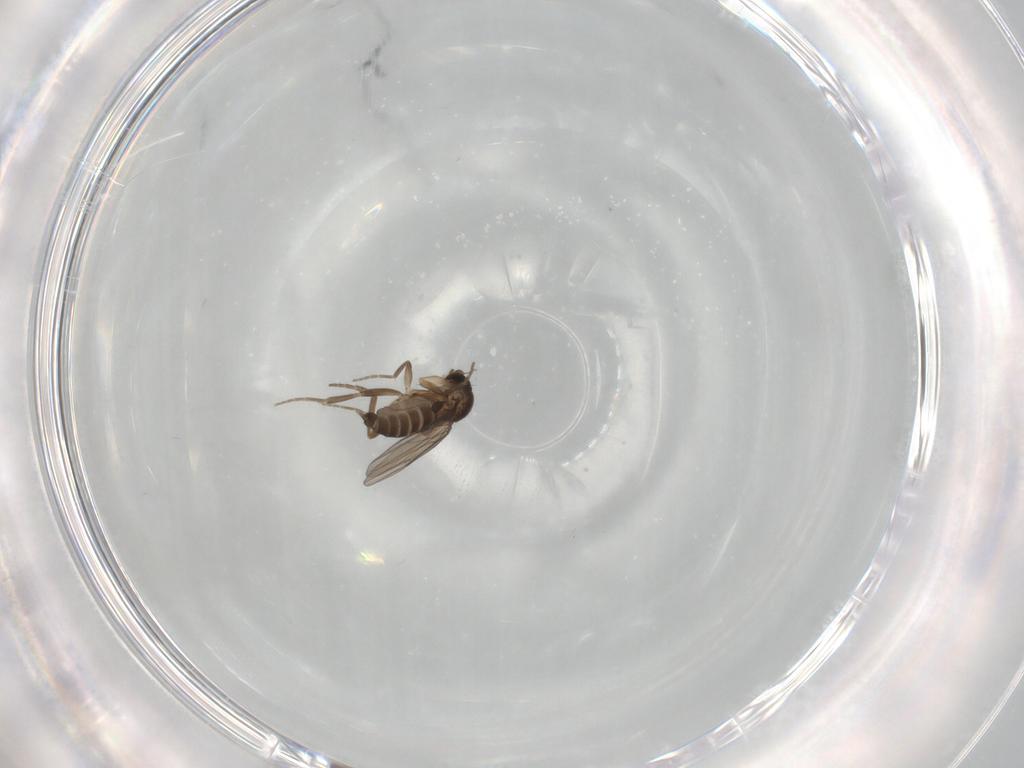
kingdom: Animalia
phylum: Arthropoda
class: Insecta
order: Diptera
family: Phoridae
